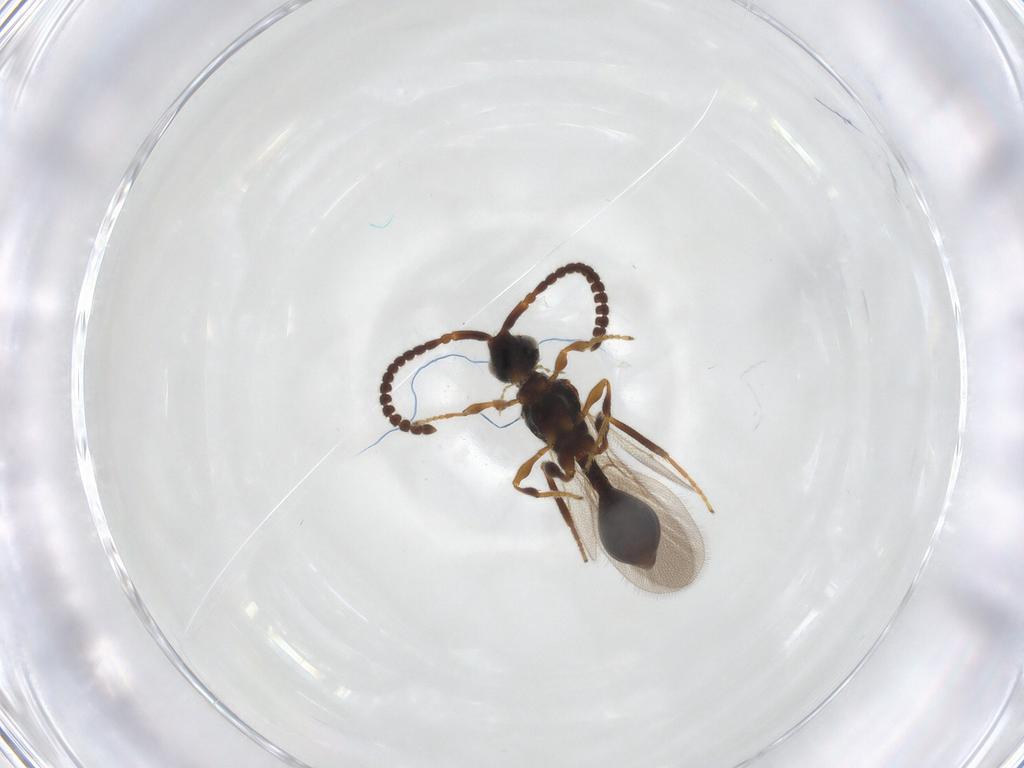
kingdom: Animalia
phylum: Arthropoda
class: Insecta
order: Hymenoptera
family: Diapriidae
